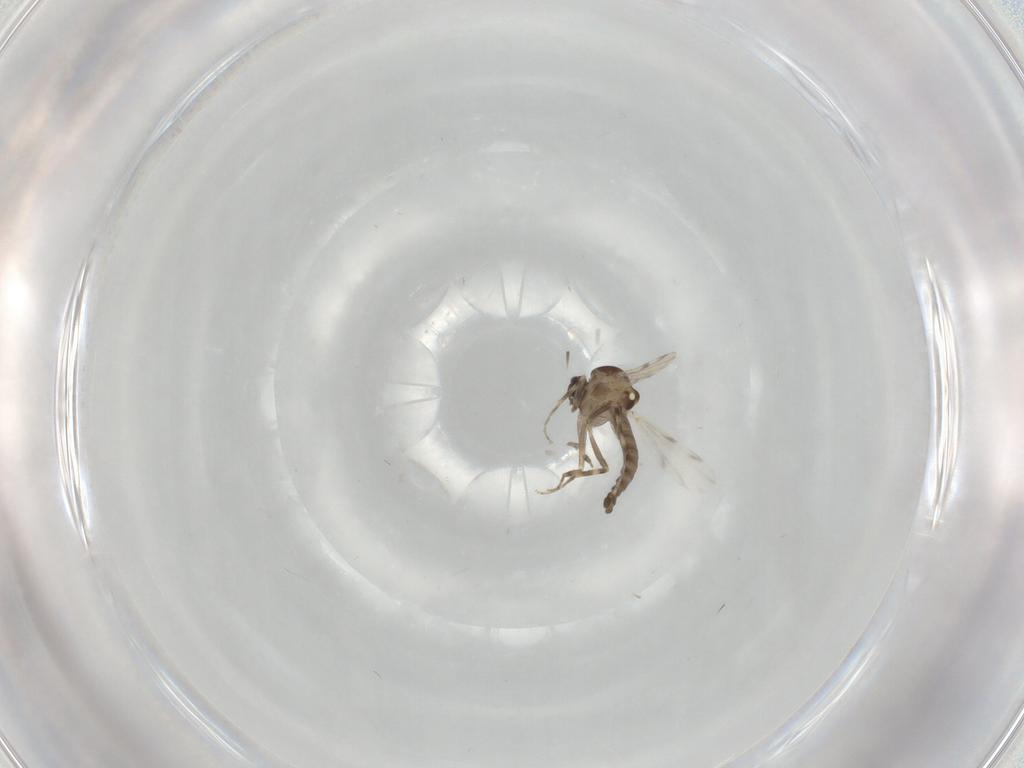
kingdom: Animalia
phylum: Arthropoda
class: Insecta
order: Diptera
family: Ceratopogonidae
